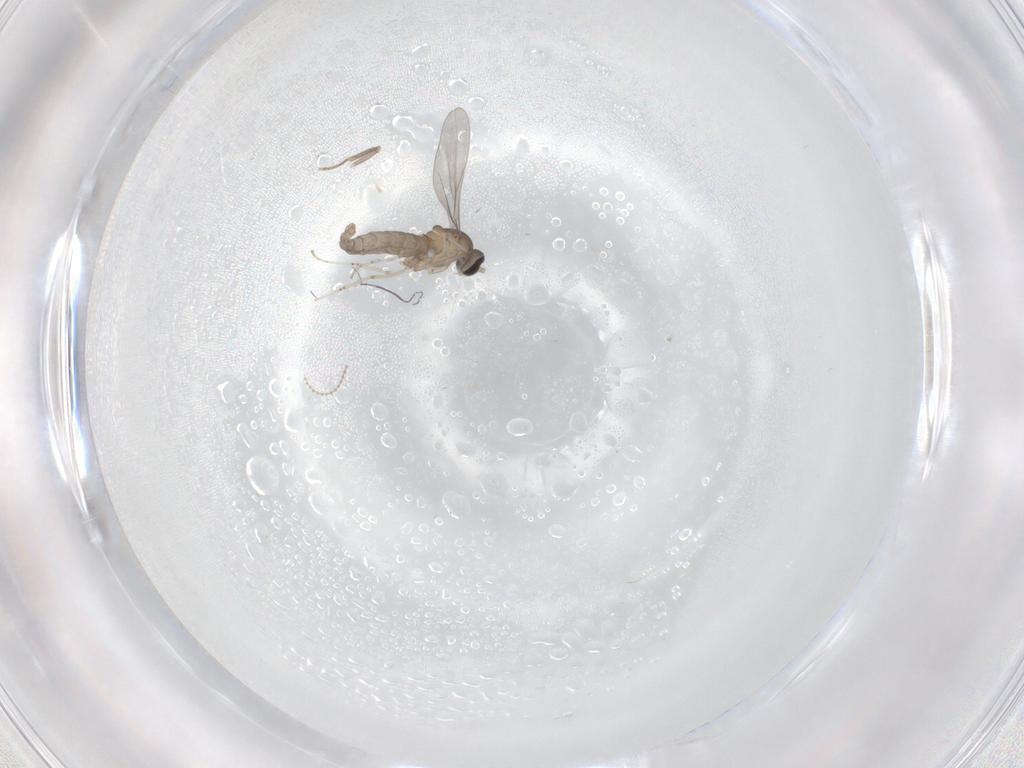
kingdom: Animalia
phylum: Arthropoda
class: Insecta
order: Diptera
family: Cecidomyiidae
